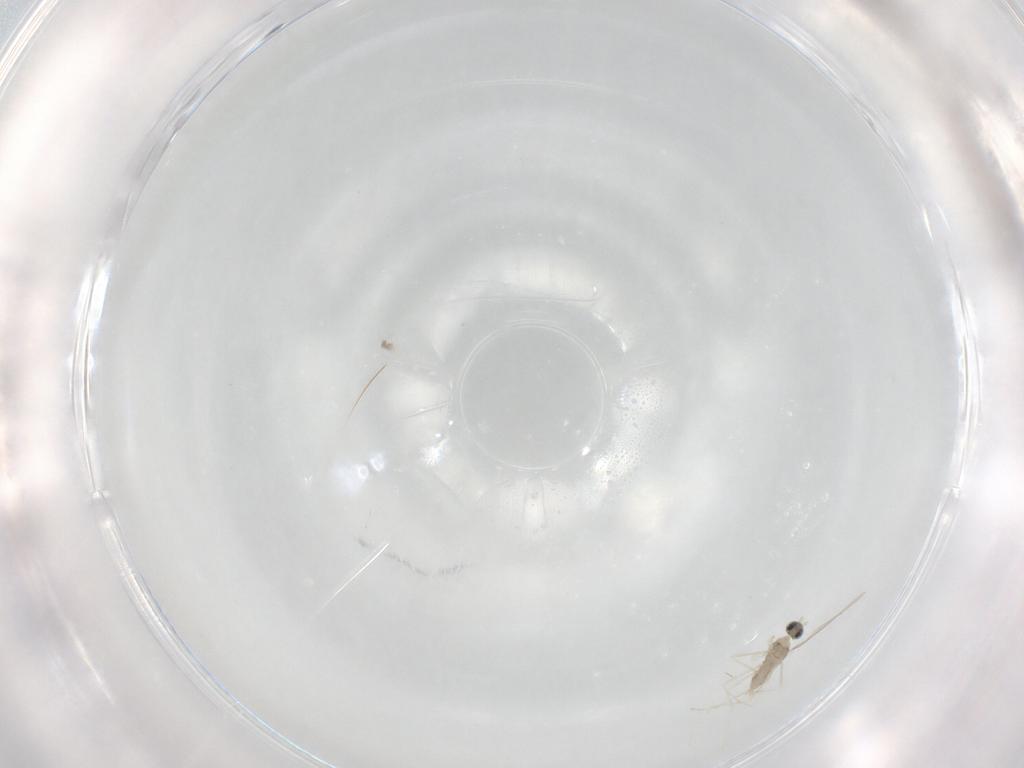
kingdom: Animalia
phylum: Arthropoda
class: Insecta
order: Diptera
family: Cecidomyiidae
